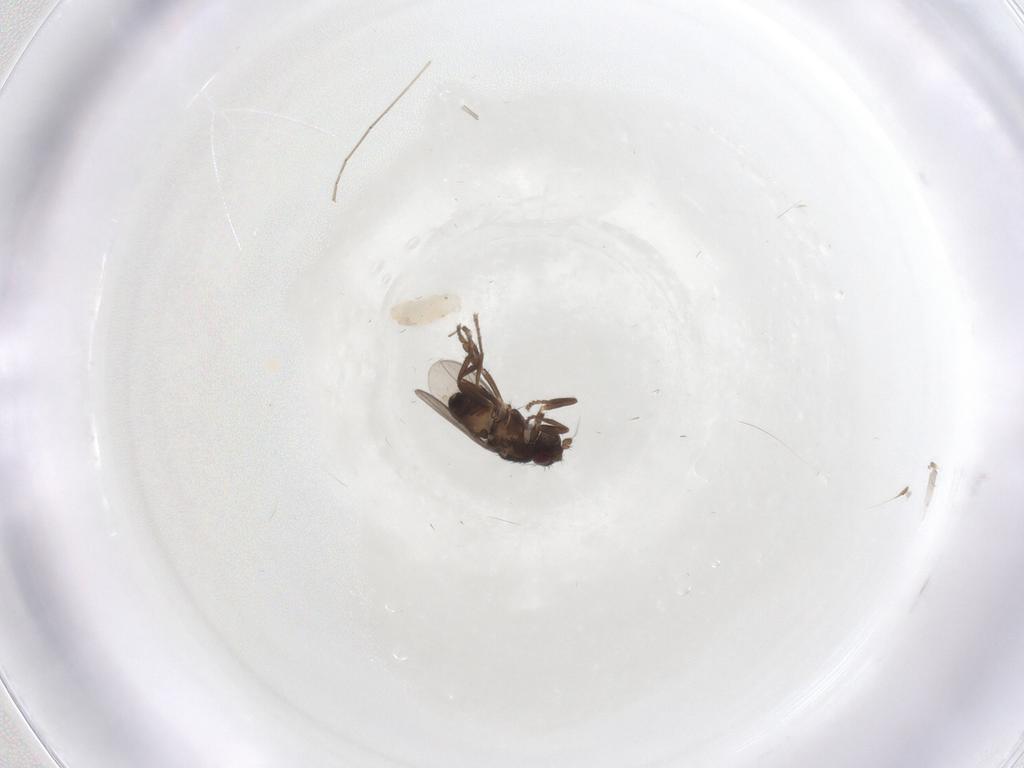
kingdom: Animalia
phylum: Arthropoda
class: Insecta
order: Diptera
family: Sphaeroceridae
